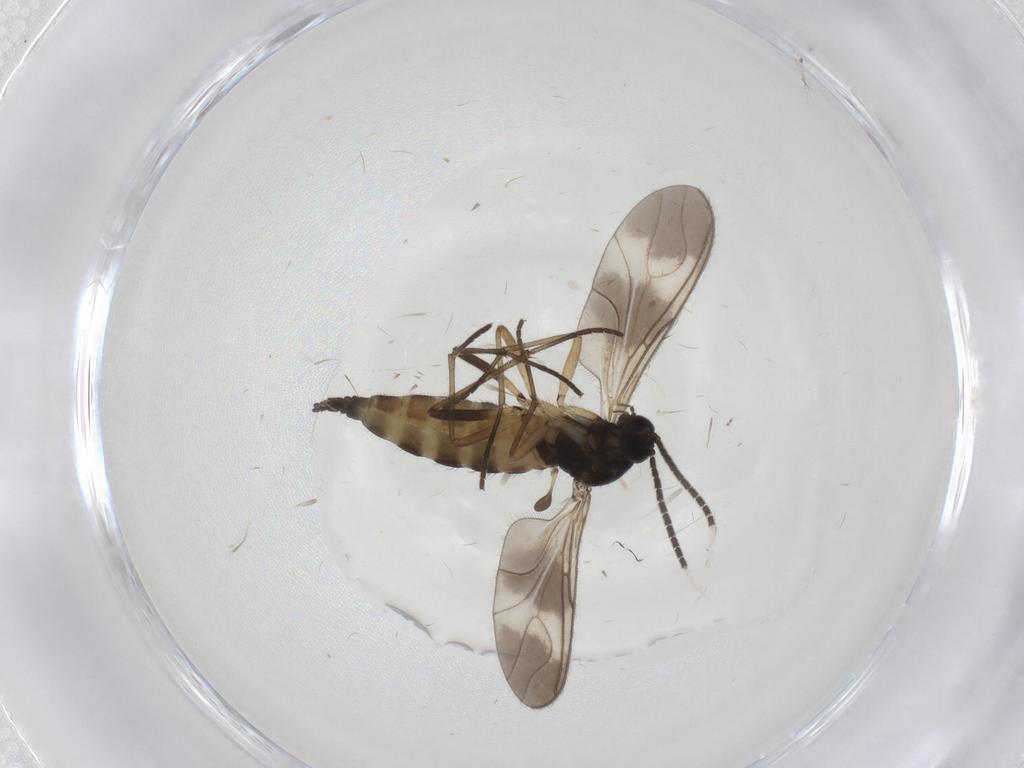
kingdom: Animalia
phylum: Arthropoda
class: Insecta
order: Diptera
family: Sciaridae
